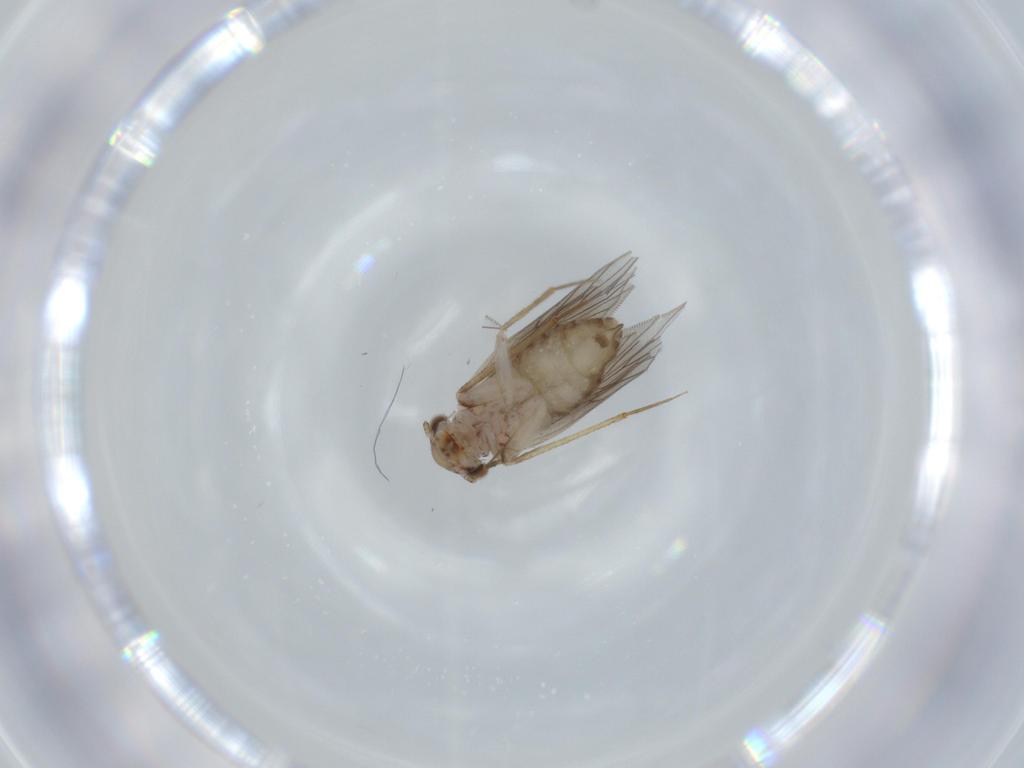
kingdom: Animalia
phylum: Arthropoda
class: Insecta
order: Psocodea
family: Lepidopsocidae
